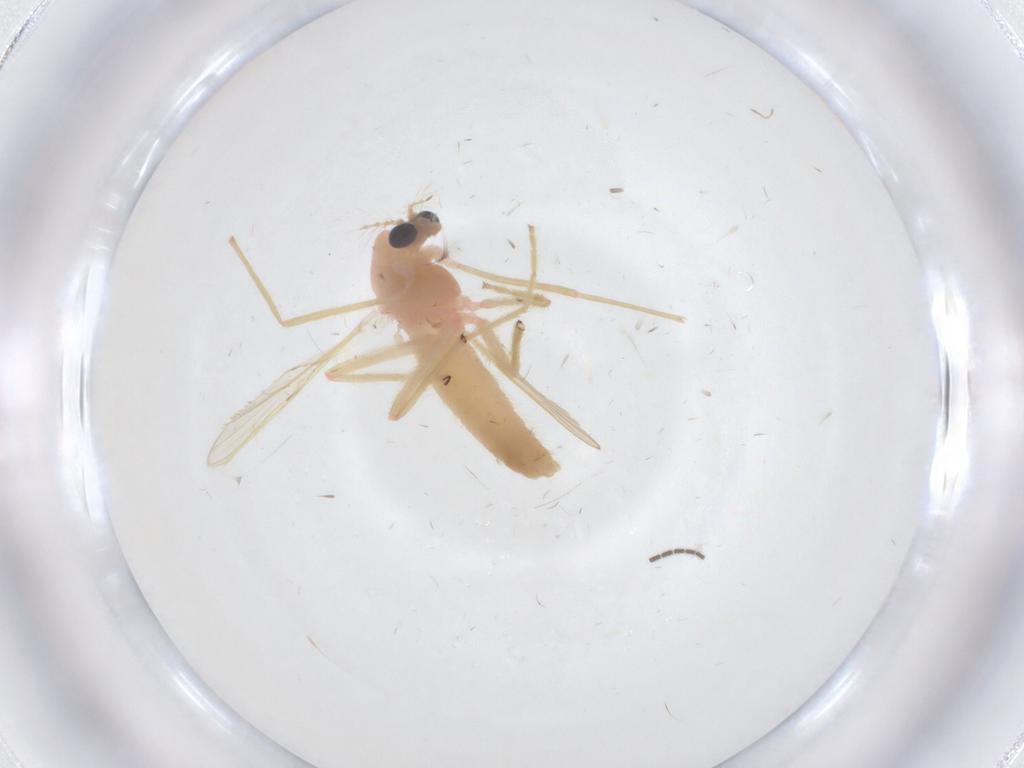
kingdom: Animalia
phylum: Arthropoda
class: Insecta
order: Diptera
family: Cecidomyiidae
